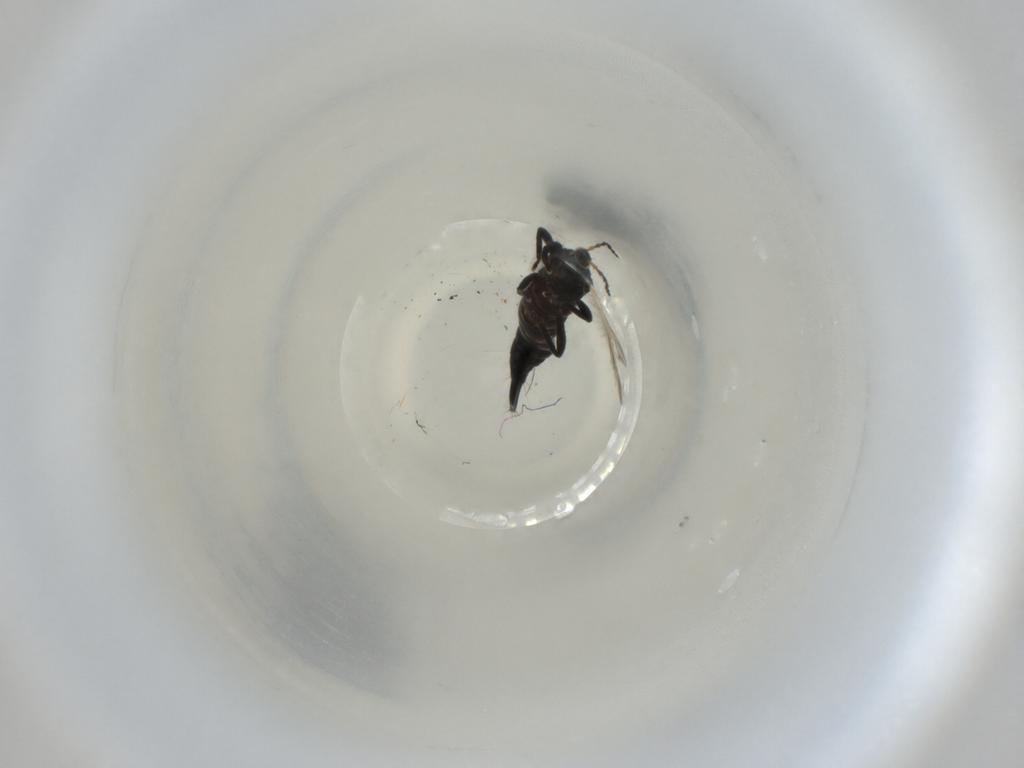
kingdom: Animalia
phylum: Arthropoda
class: Insecta
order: Thysanoptera
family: Phlaeothripidae
